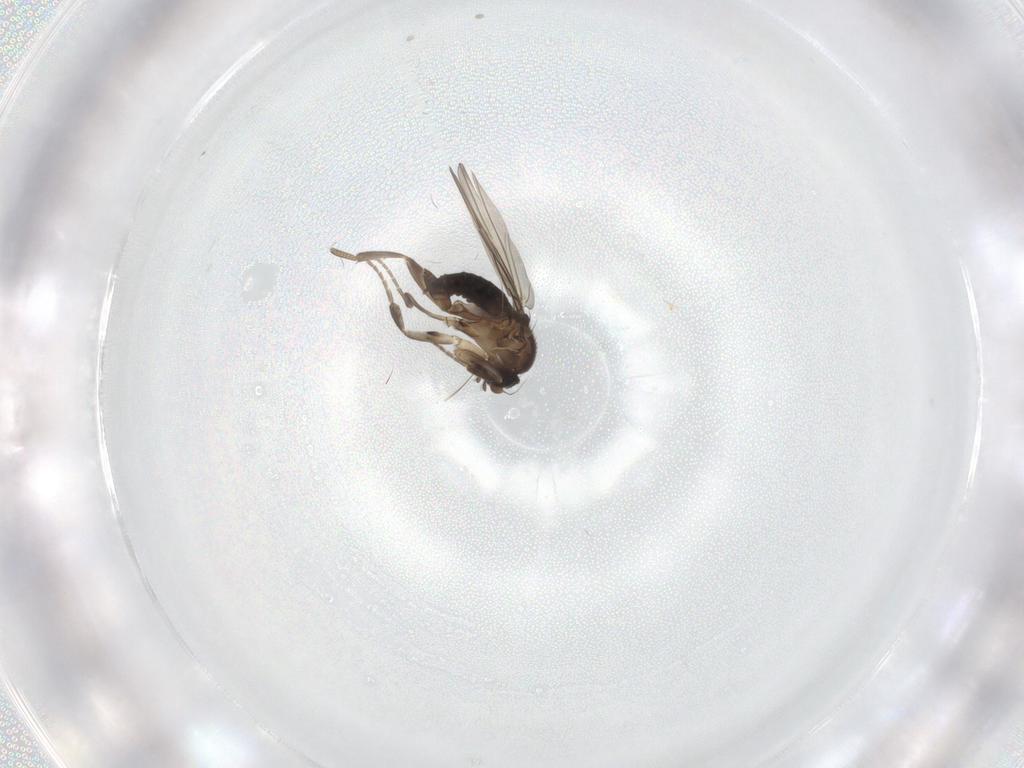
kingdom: Animalia
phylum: Arthropoda
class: Insecta
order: Diptera
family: Phoridae
